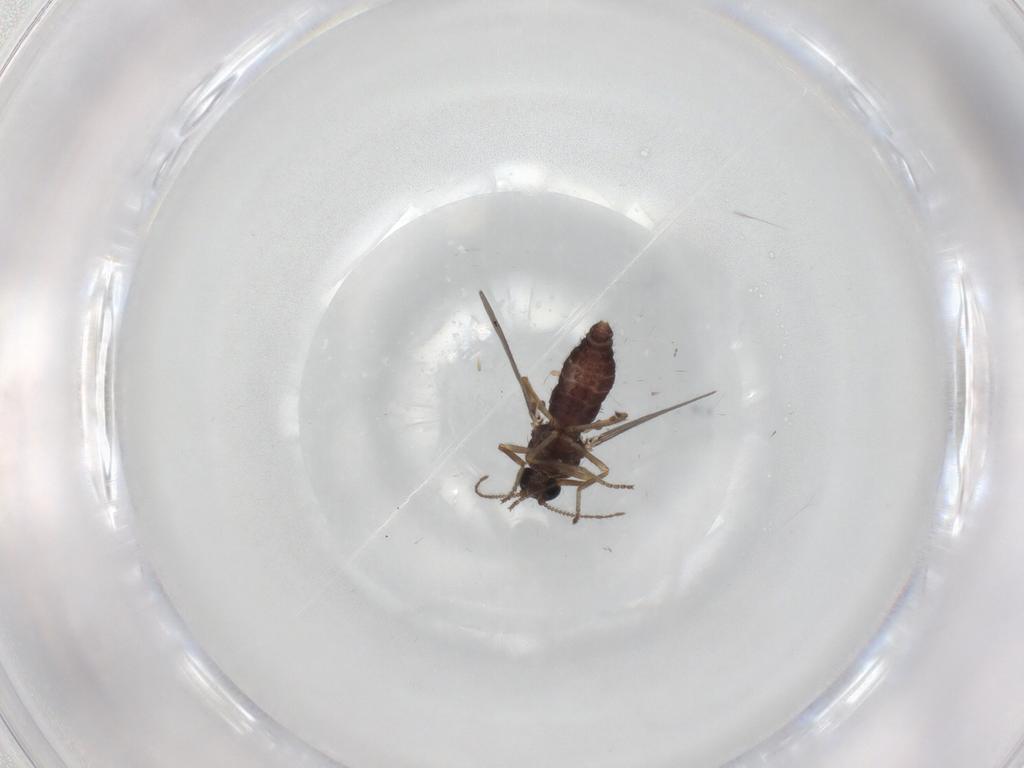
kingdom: Animalia
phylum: Arthropoda
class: Insecta
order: Diptera
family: Ceratopogonidae
